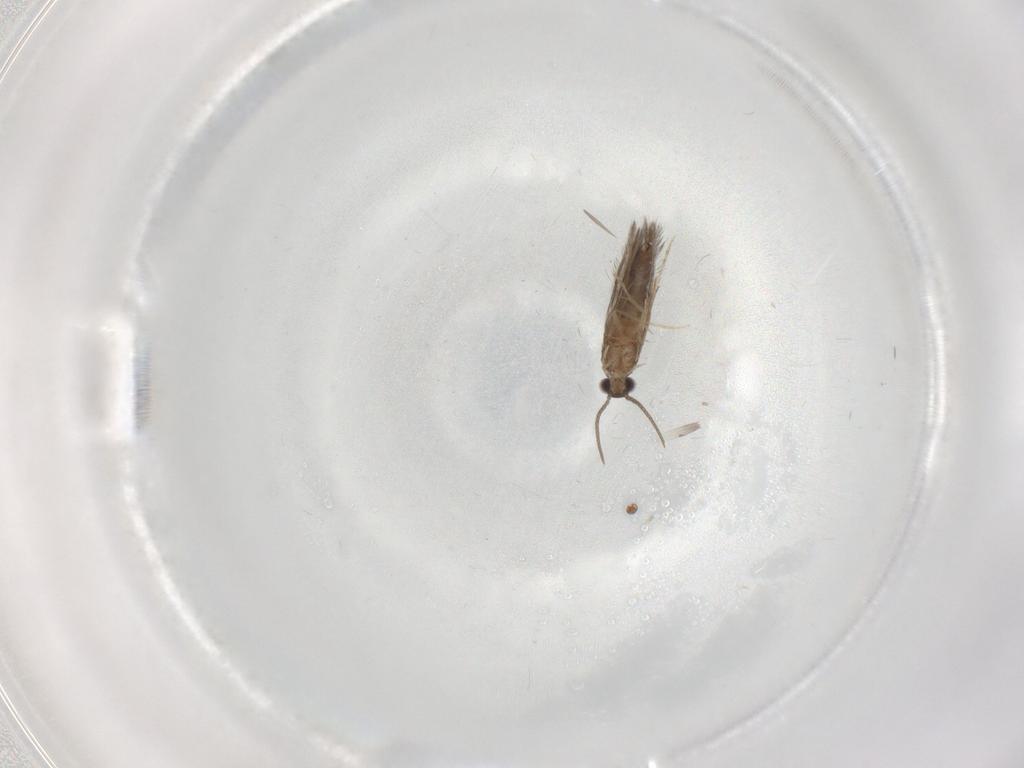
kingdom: Animalia
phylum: Arthropoda
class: Insecta
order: Trichoptera
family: Hydroptilidae
